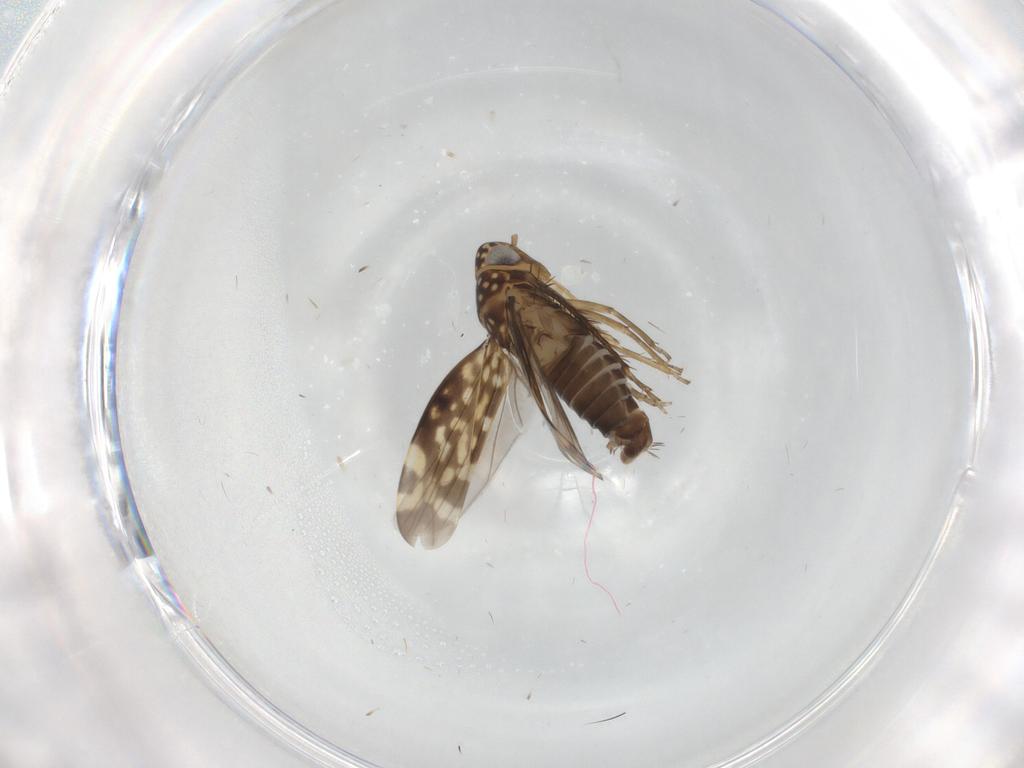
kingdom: Animalia
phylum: Arthropoda
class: Insecta
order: Hemiptera
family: Cicadellidae
